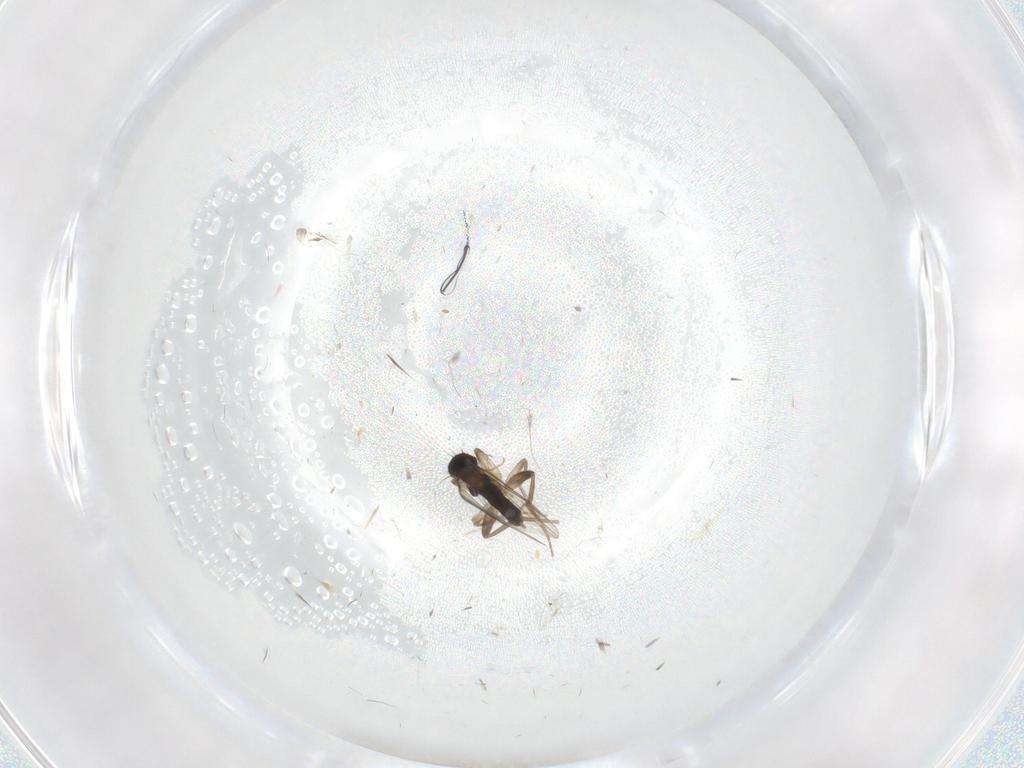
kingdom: Animalia
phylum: Arthropoda
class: Insecta
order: Diptera
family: Phoridae
